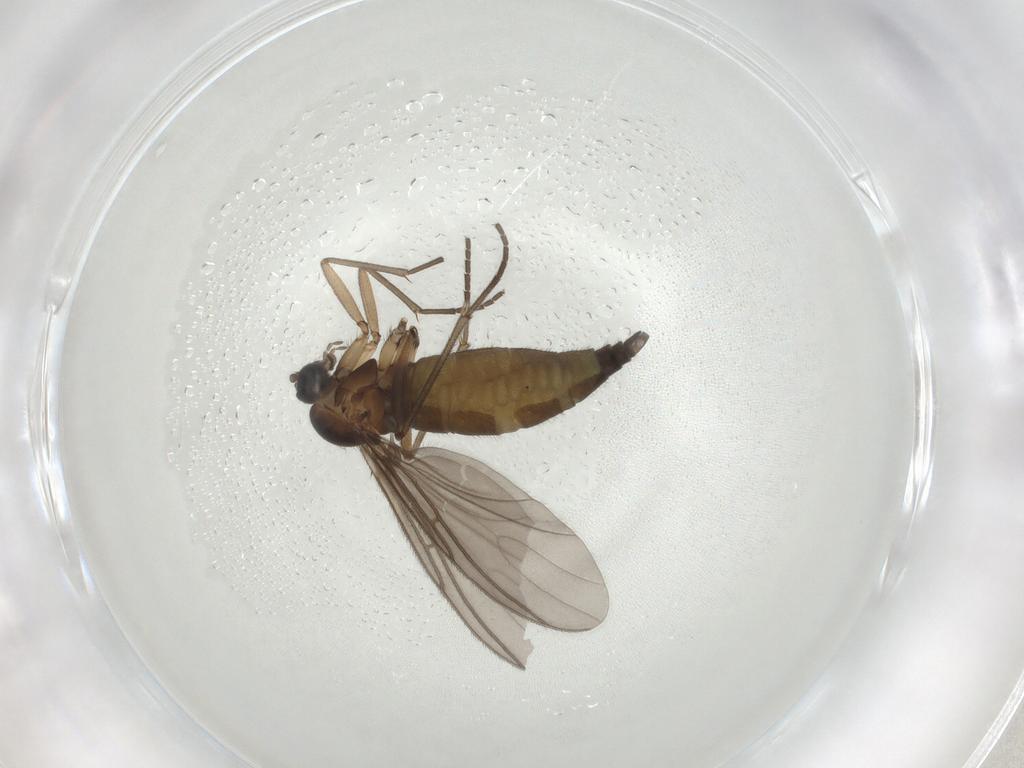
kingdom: Animalia
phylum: Arthropoda
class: Insecta
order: Diptera
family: Sciaridae
